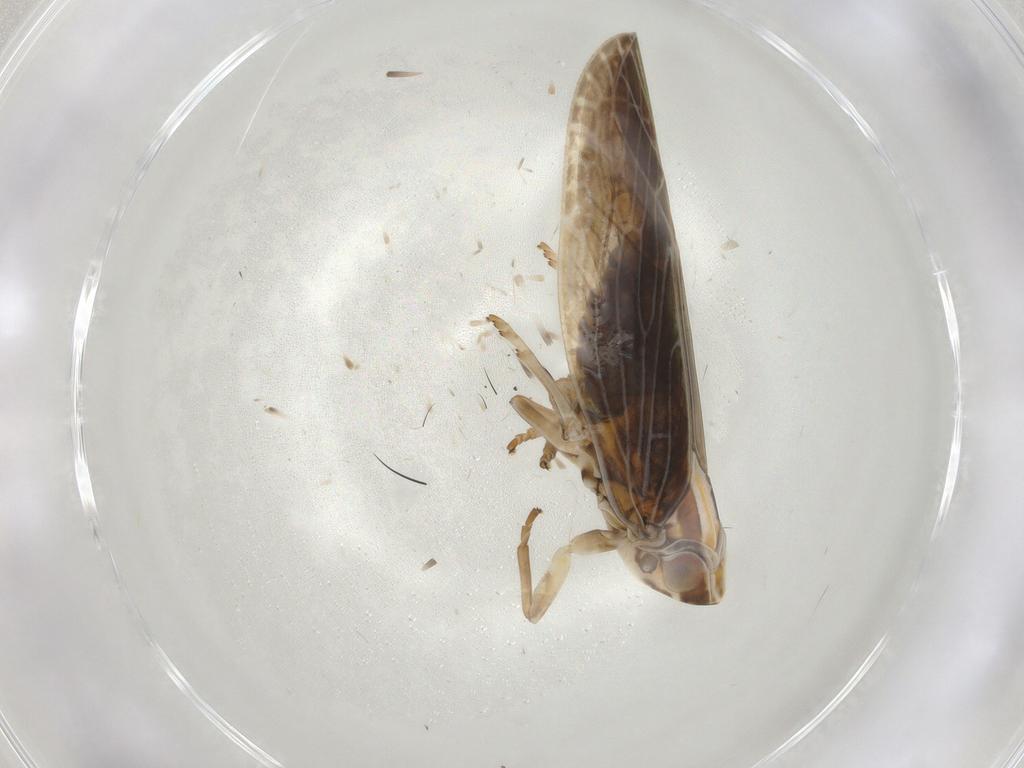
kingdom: Animalia
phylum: Arthropoda
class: Insecta
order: Hemiptera
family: Achilidae
